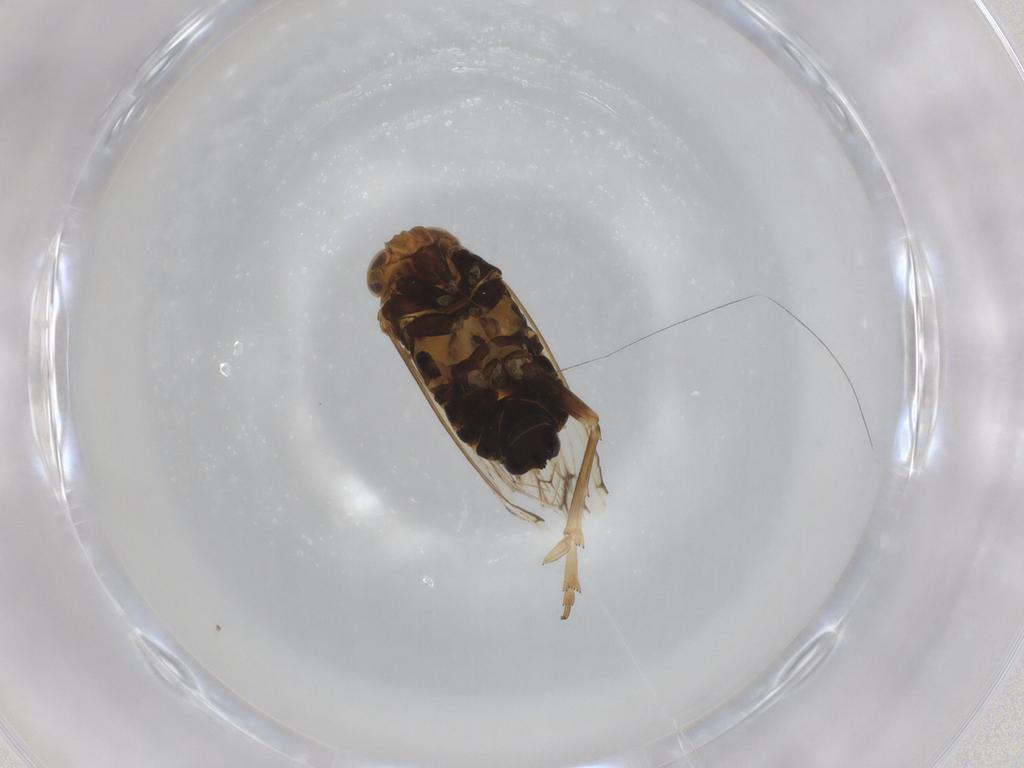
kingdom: Animalia
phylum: Arthropoda
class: Insecta
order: Hemiptera
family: Delphacidae
